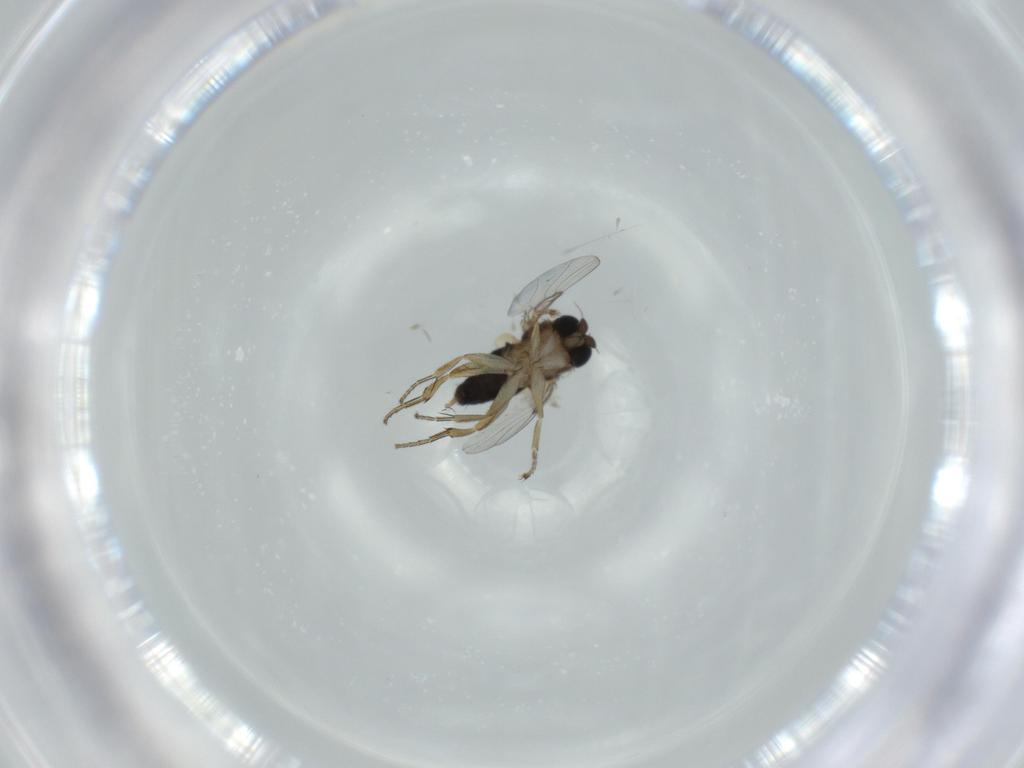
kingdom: Animalia
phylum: Arthropoda
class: Insecta
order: Diptera
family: Phoridae
